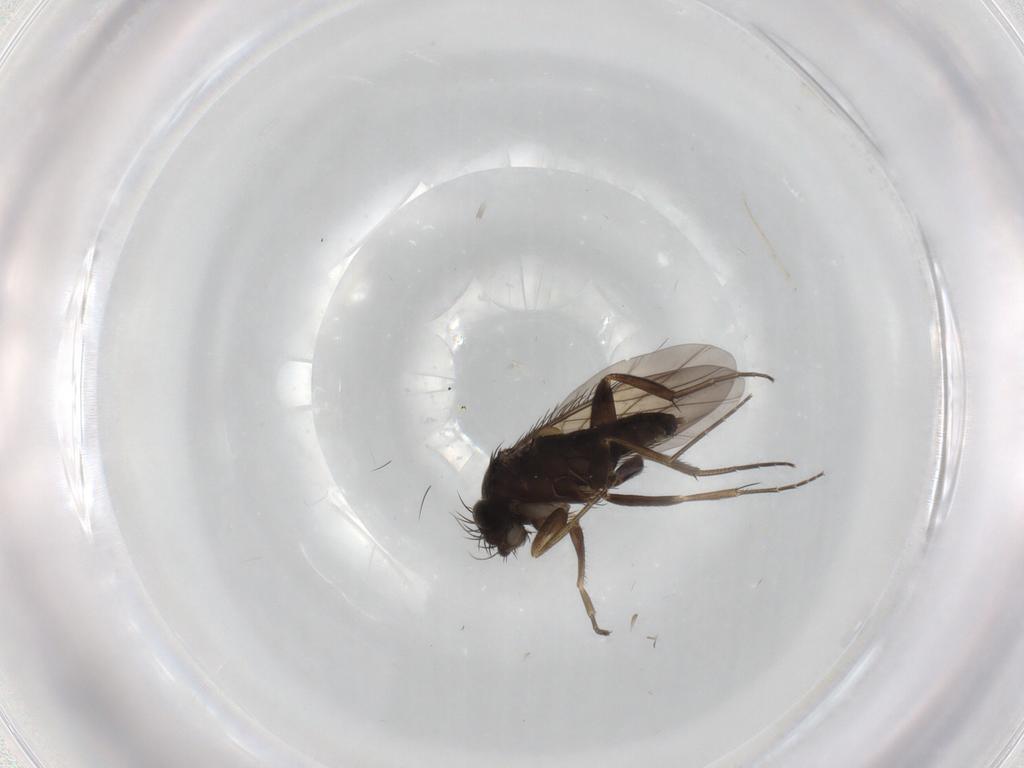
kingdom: Animalia
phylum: Arthropoda
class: Insecta
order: Diptera
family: Phoridae
